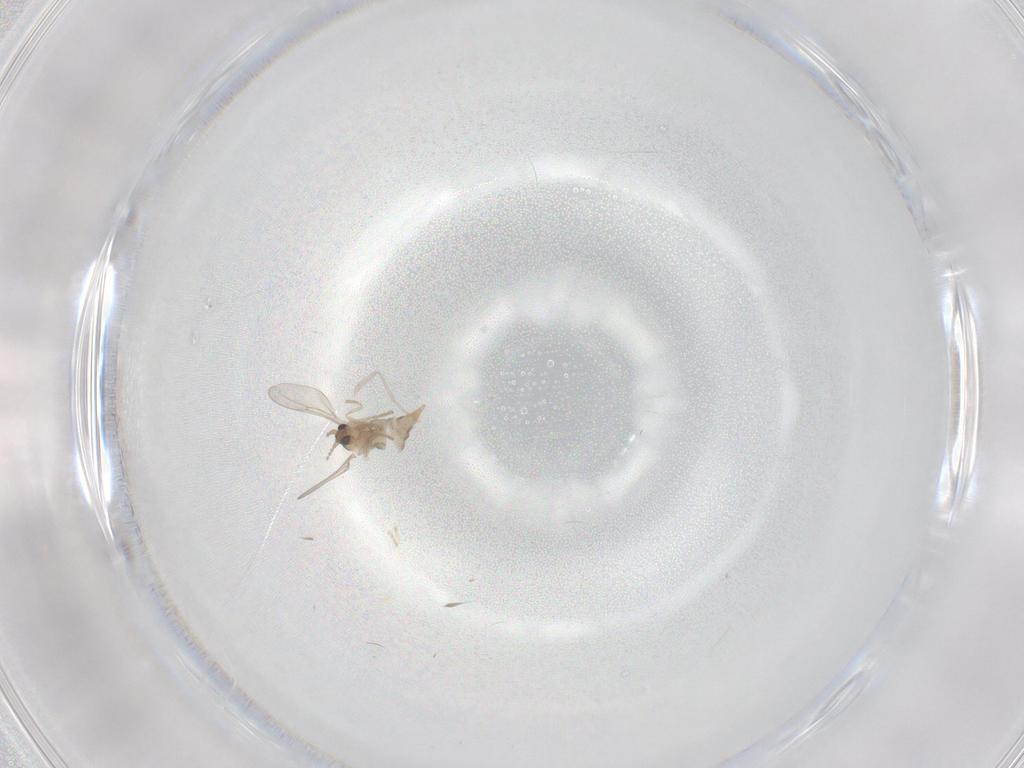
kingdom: Animalia
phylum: Arthropoda
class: Insecta
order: Diptera
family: Cecidomyiidae
